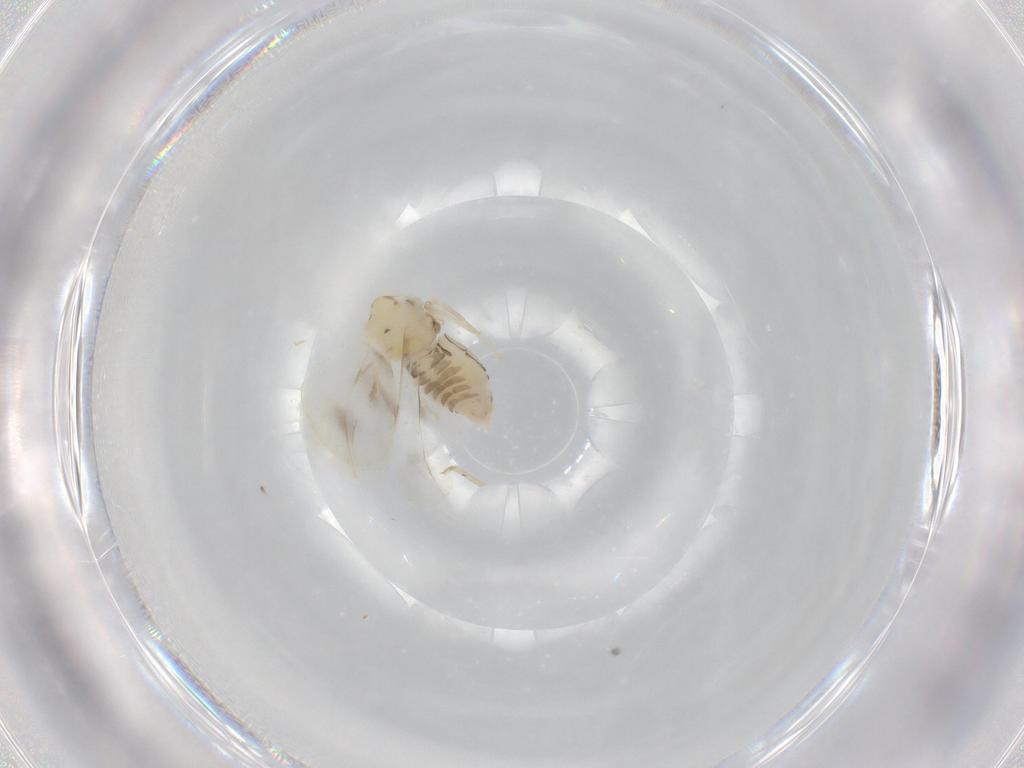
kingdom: Animalia
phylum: Arthropoda
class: Insecta
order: Hemiptera
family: Aleyrodidae
